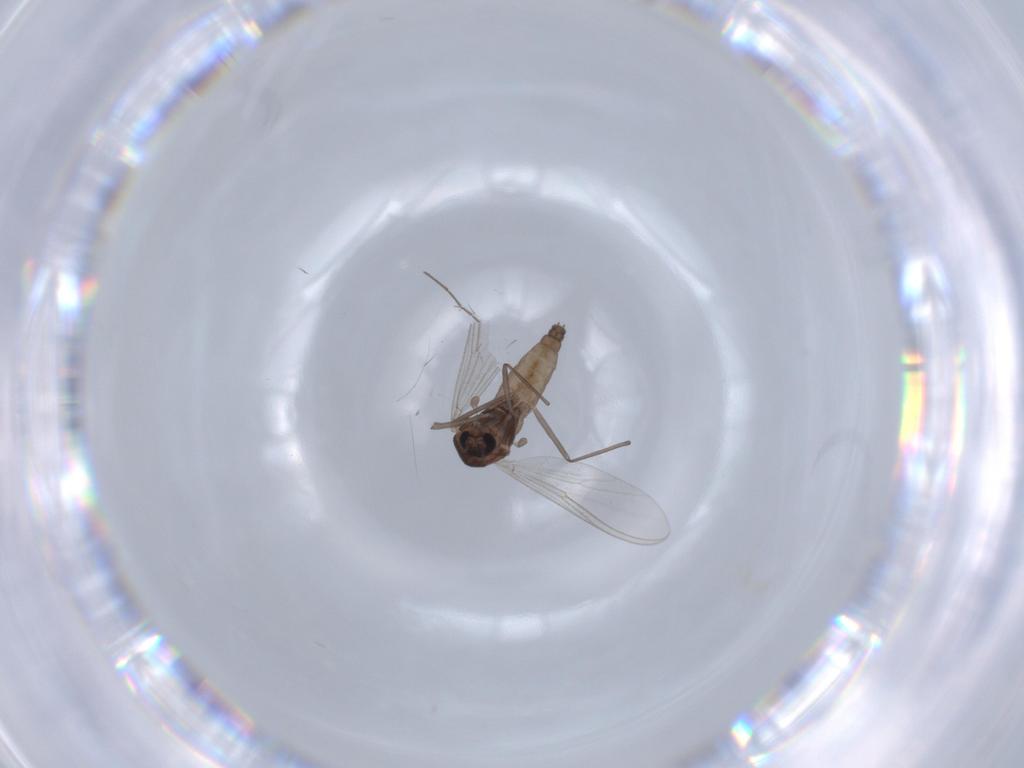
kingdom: Animalia
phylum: Arthropoda
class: Insecta
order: Diptera
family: Chironomidae
